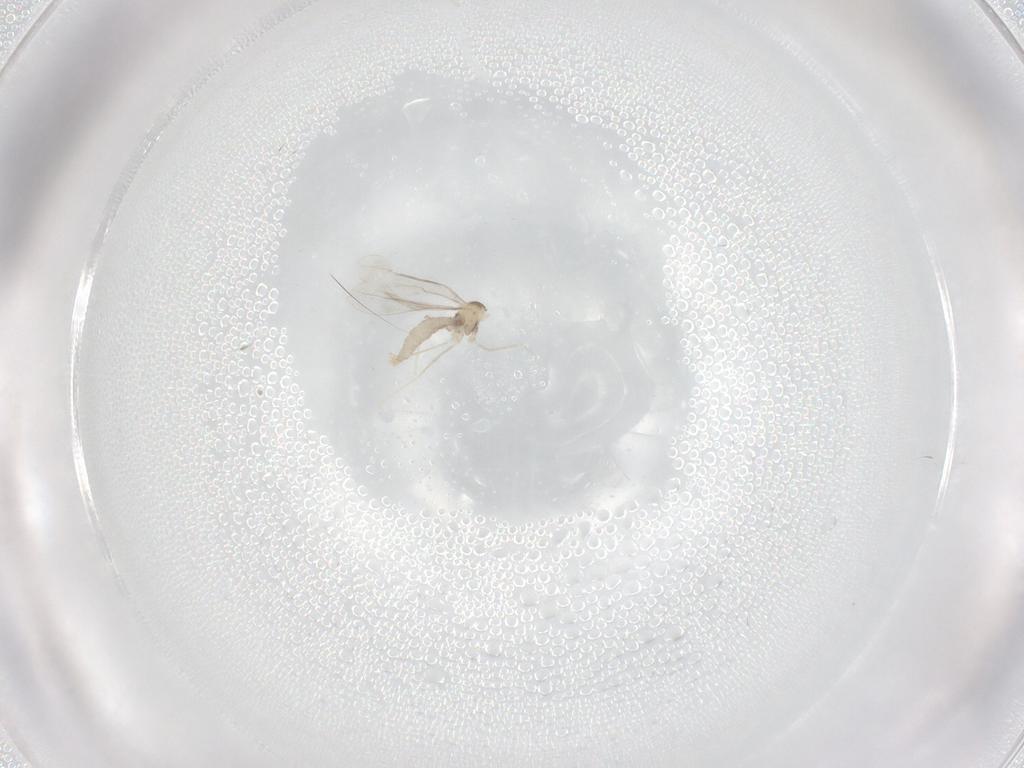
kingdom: Animalia
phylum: Arthropoda
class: Insecta
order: Diptera
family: Cecidomyiidae
